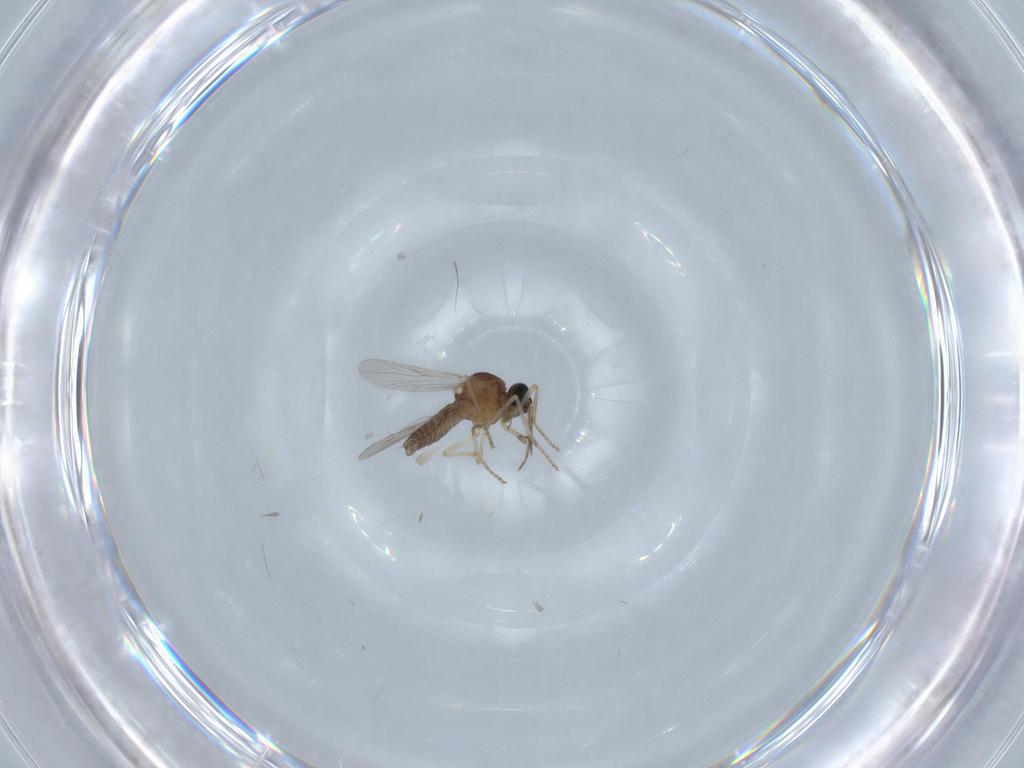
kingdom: Animalia
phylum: Arthropoda
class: Insecta
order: Diptera
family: Ceratopogonidae
